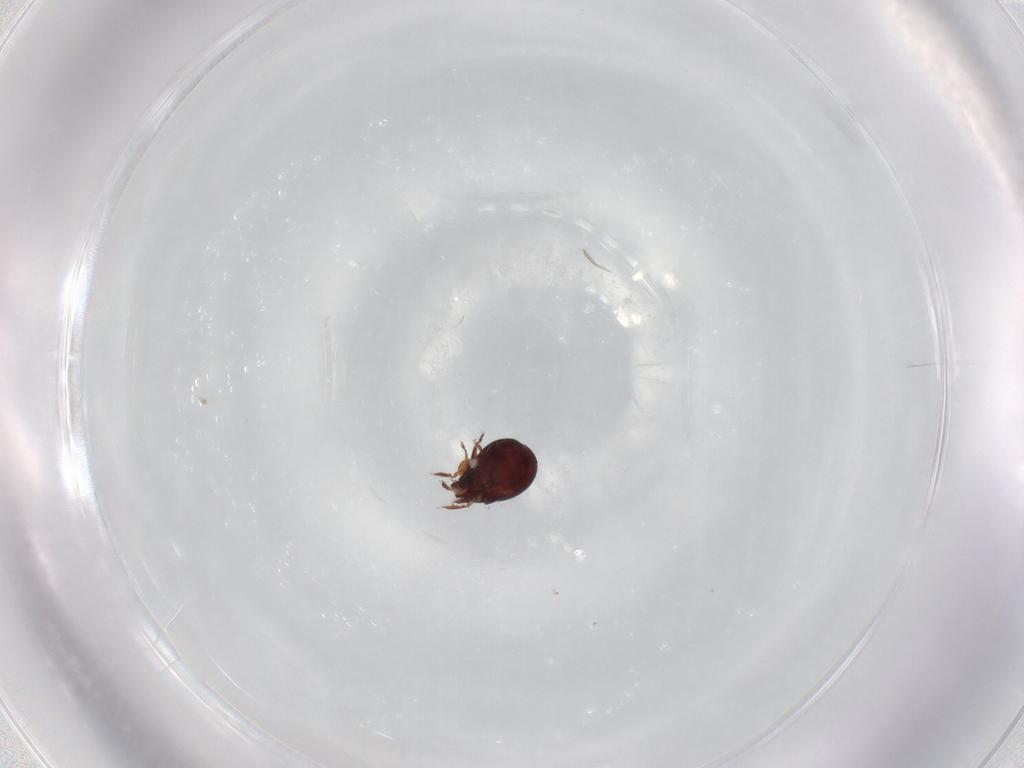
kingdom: Animalia
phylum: Arthropoda
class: Arachnida
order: Sarcoptiformes
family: Humerobatidae
